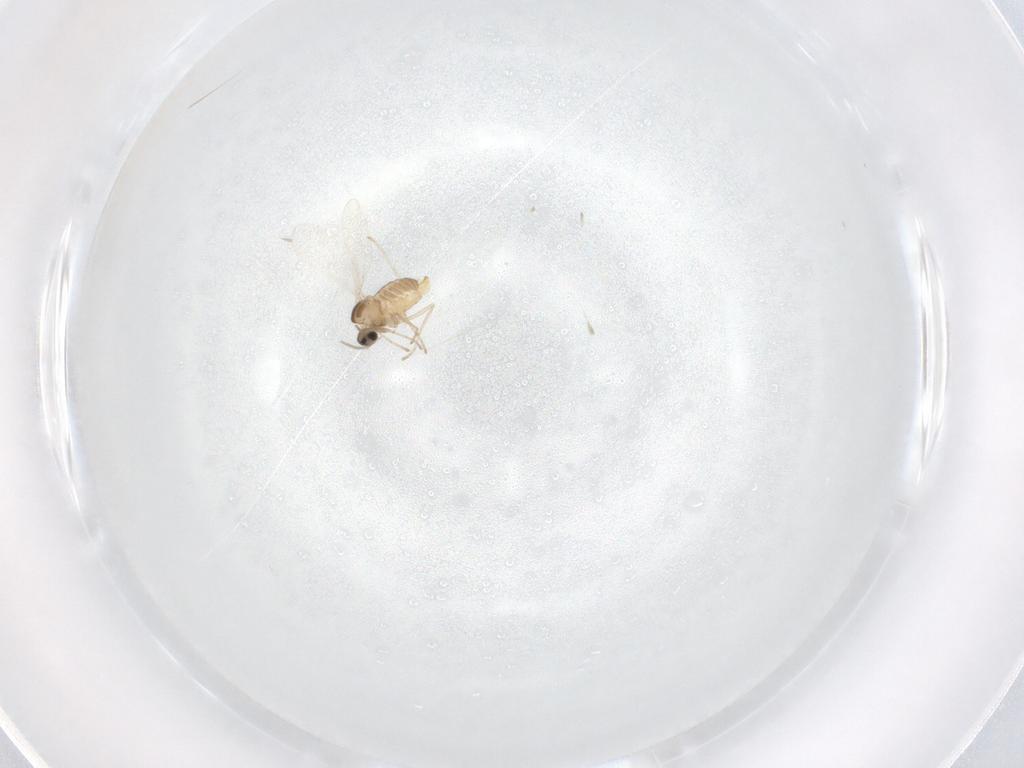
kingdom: Animalia
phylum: Arthropoda
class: Insecta
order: Diptera
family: Cecidomyiidae
